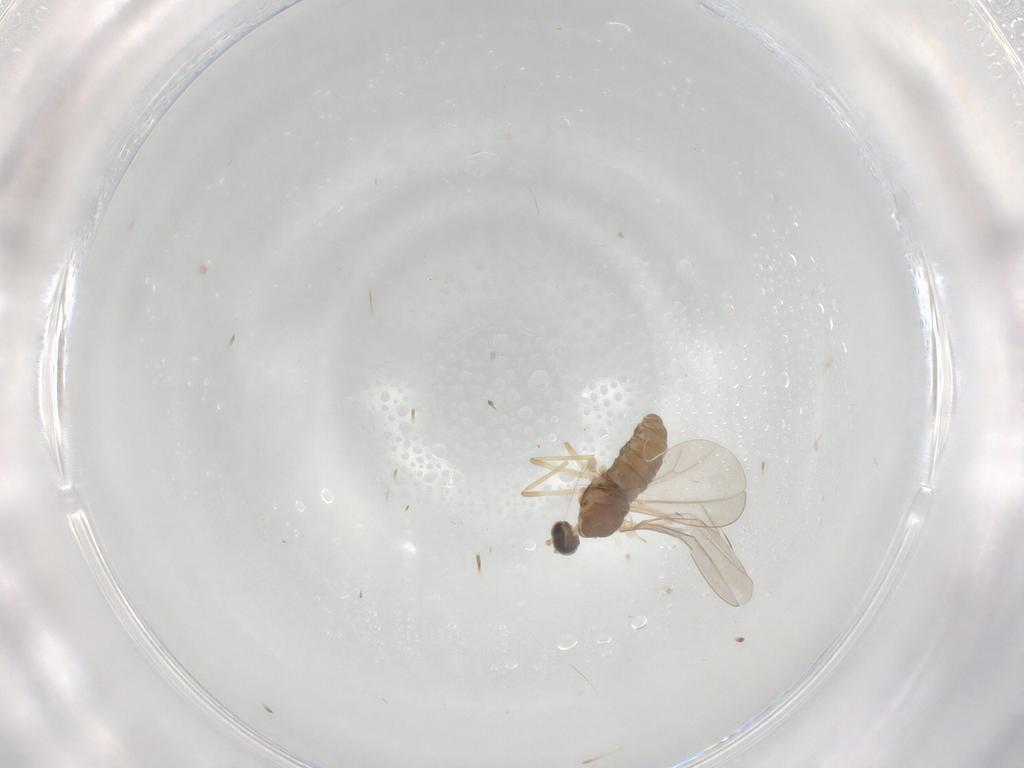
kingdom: Animalia
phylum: Arthropoda
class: Insecta
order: Diptera
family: Cecidomyiidae
